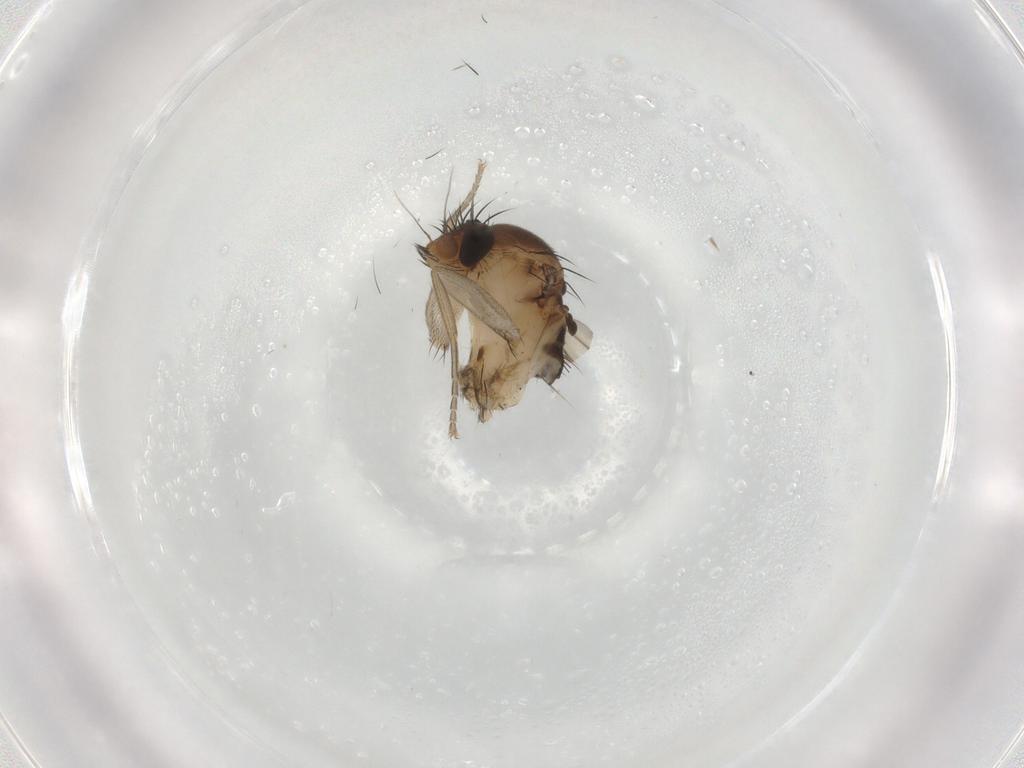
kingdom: Animalia
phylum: Arthropoda
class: Insecta
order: Diptera
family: Phoridae
